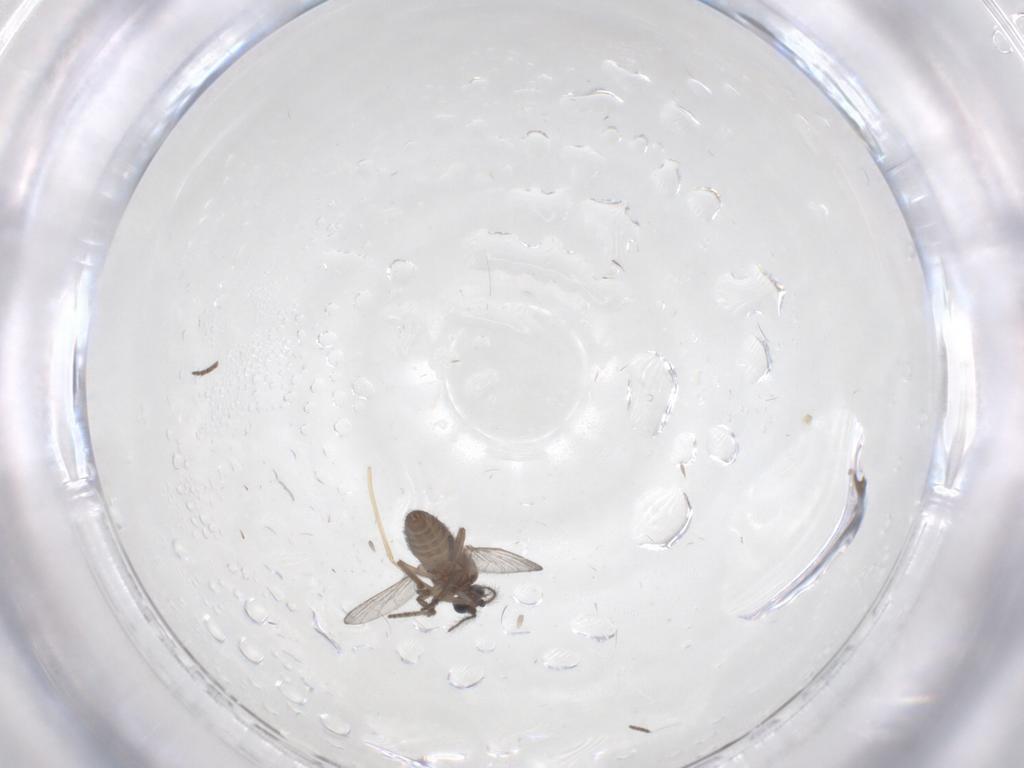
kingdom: Animalia
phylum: Arthropoda
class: Insecta
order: Diptera
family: Ceratopogonidae
